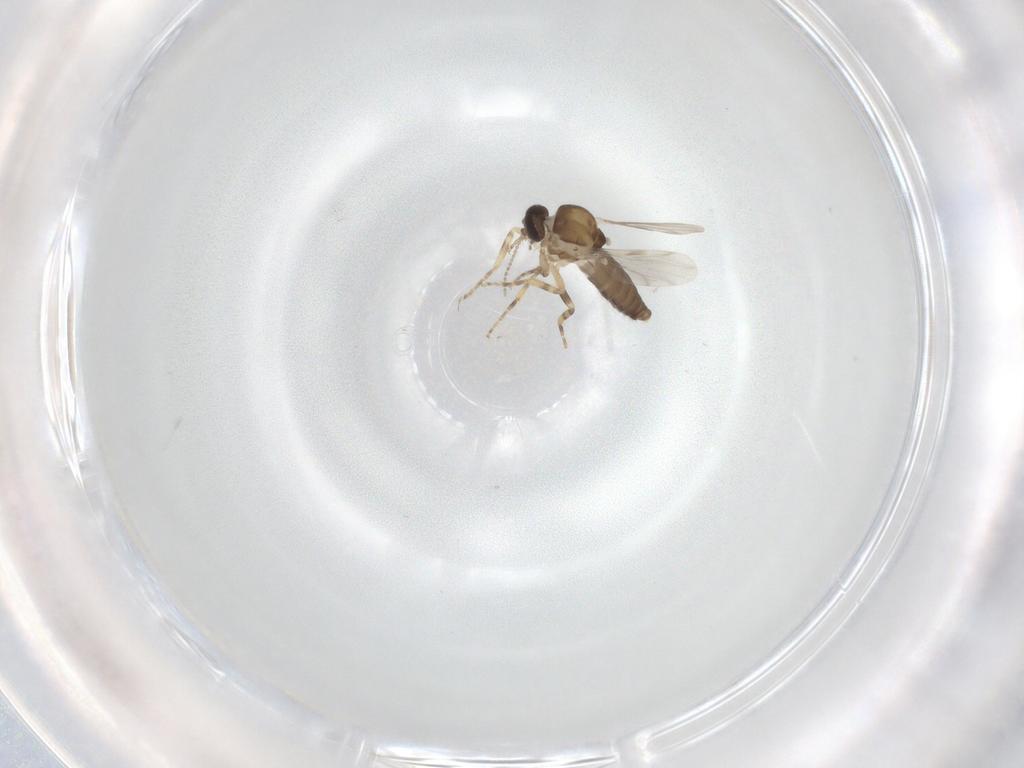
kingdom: Animalia
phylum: Arthropoda
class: Insecta
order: Diptera
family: Ceratopogonidae
